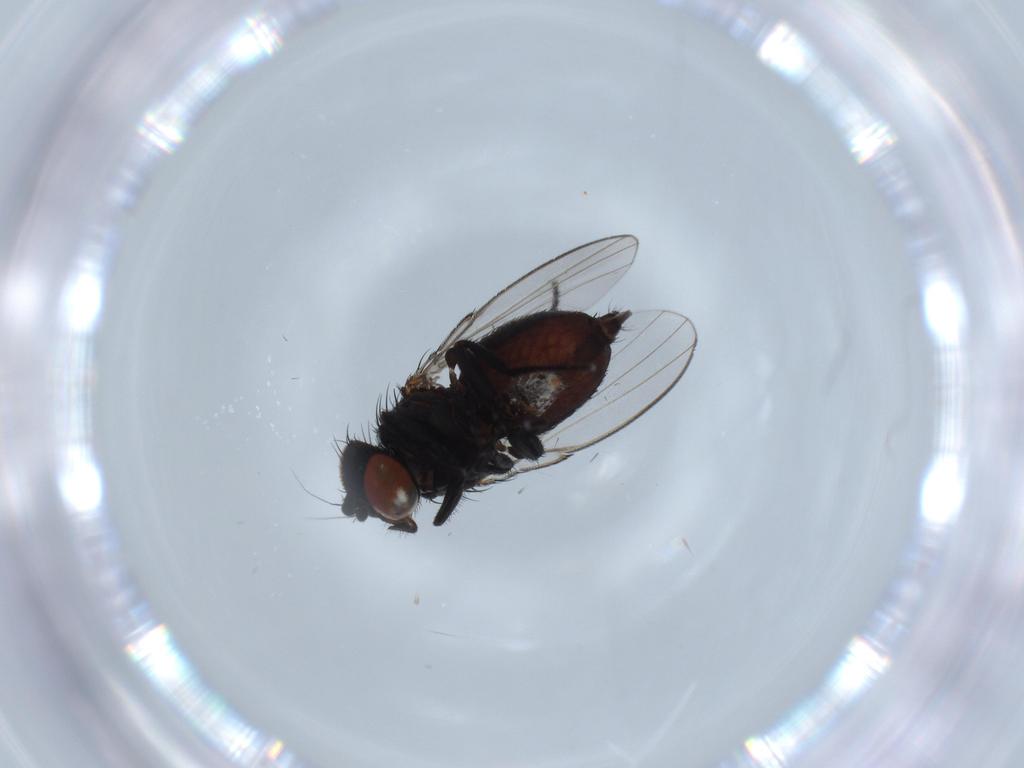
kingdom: Animalia
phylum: Arthropoda
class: Insecta
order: Diptera
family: Milichiidae
